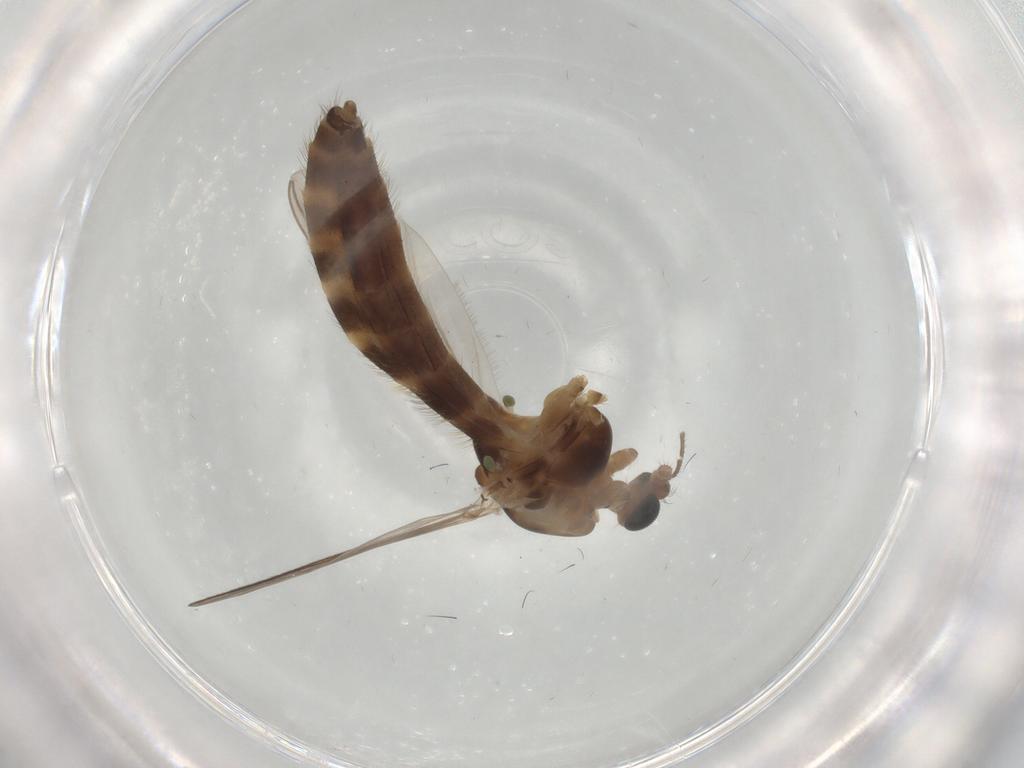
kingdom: Animalia
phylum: Arthropoda
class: Insecta
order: Diptera
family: Chironomidae
